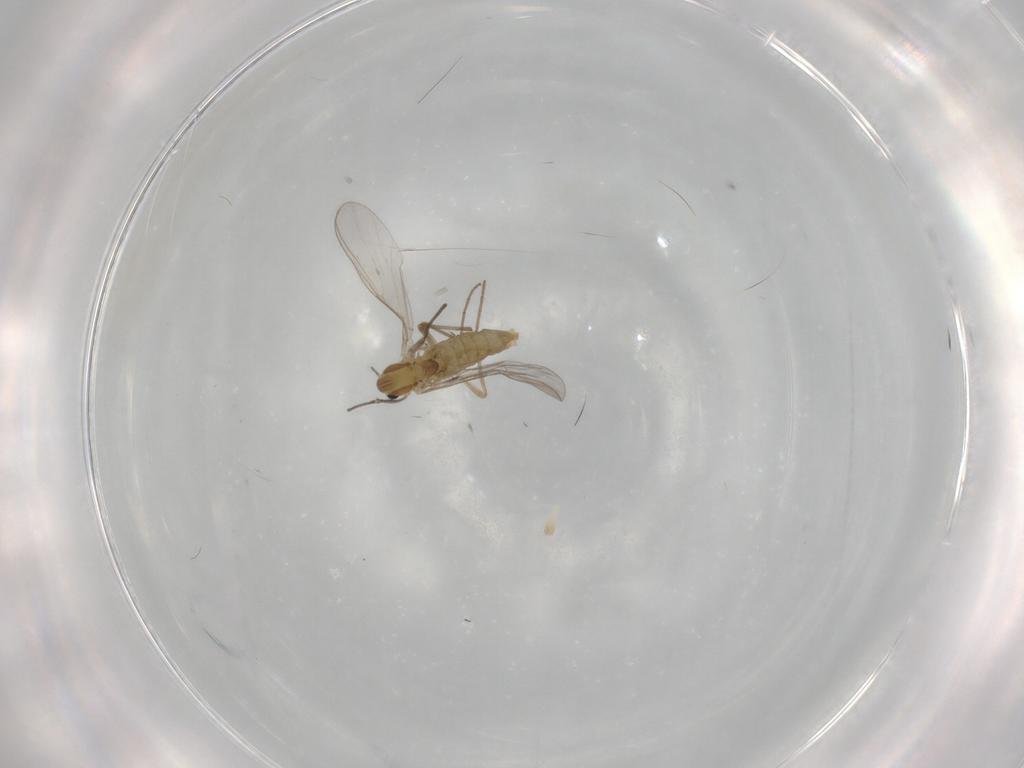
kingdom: Animalia
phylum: Arthropoda
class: Insecta
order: Diptera
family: Chironomidae
